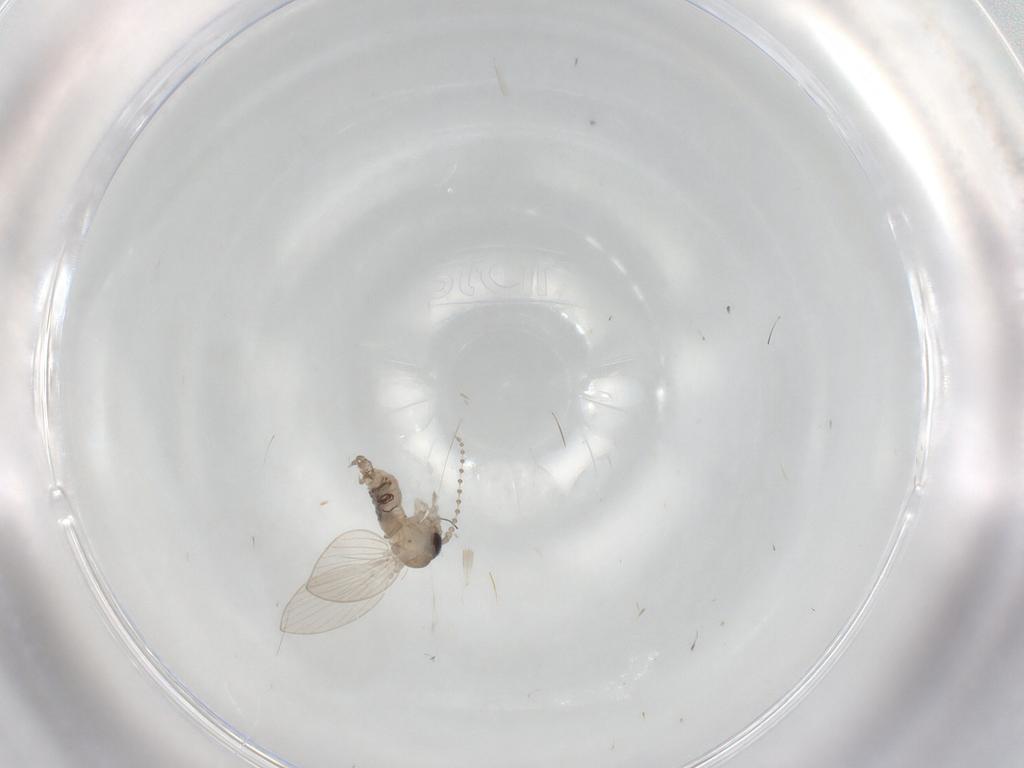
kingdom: Animalia
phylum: Arthropoda
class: Insecta
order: Diptera
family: Psychodidae
